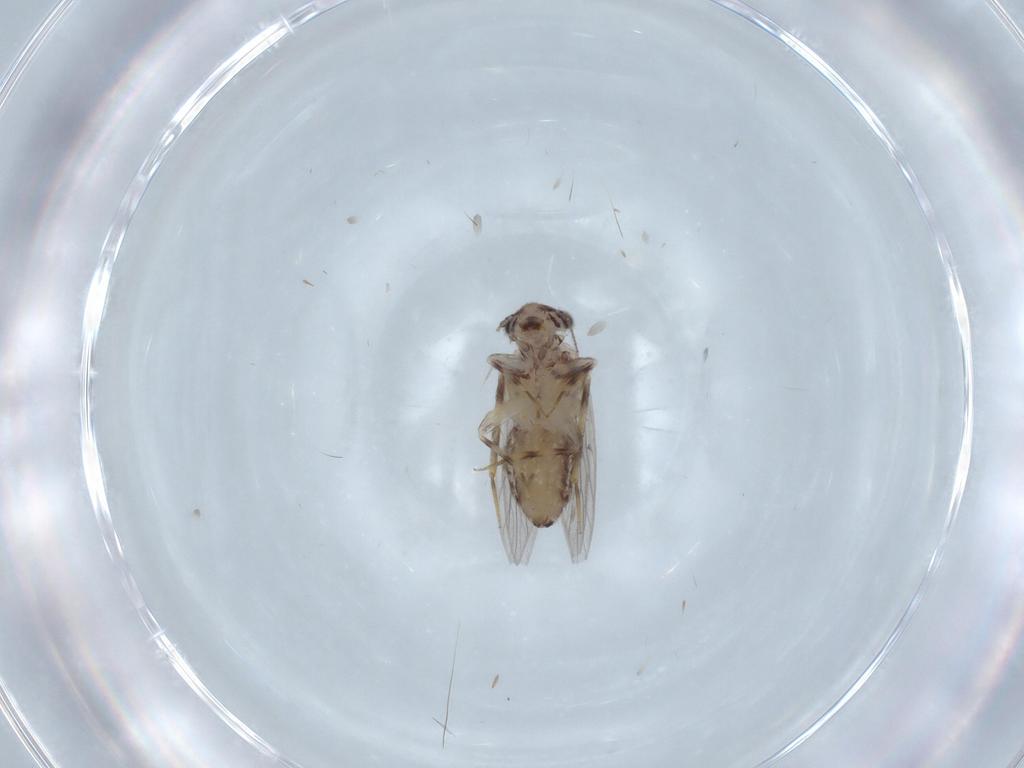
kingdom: Animalia
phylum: Arthropoda
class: Insecta
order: Psocodea
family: Lepidopsocidae
